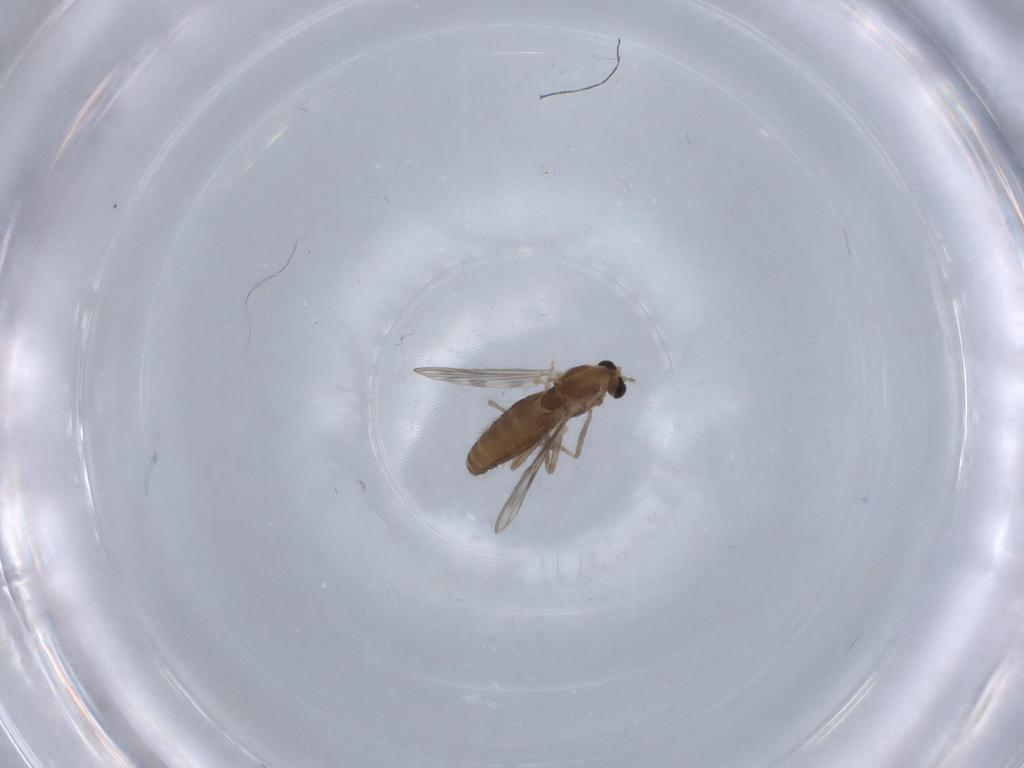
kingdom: Animalia
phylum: Arthropoda
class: Insecta
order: Diptera
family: Chironomidae
